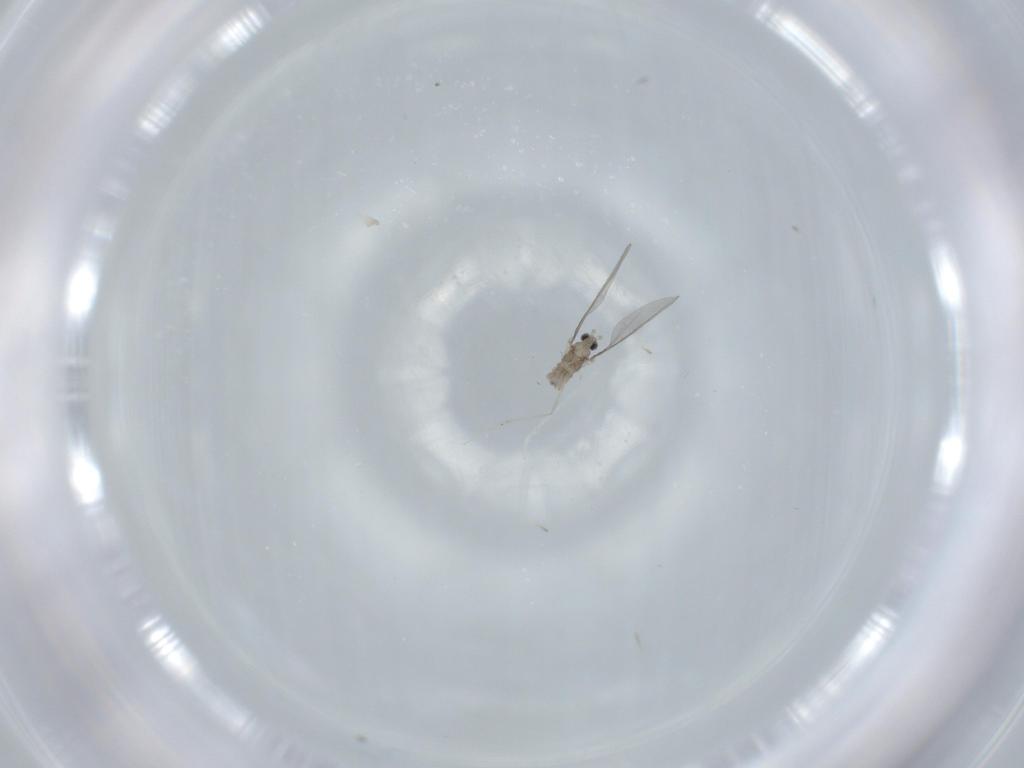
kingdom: Animalia
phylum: Arthropoda
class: Insecta
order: Diptera
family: Cecidomyiidae
